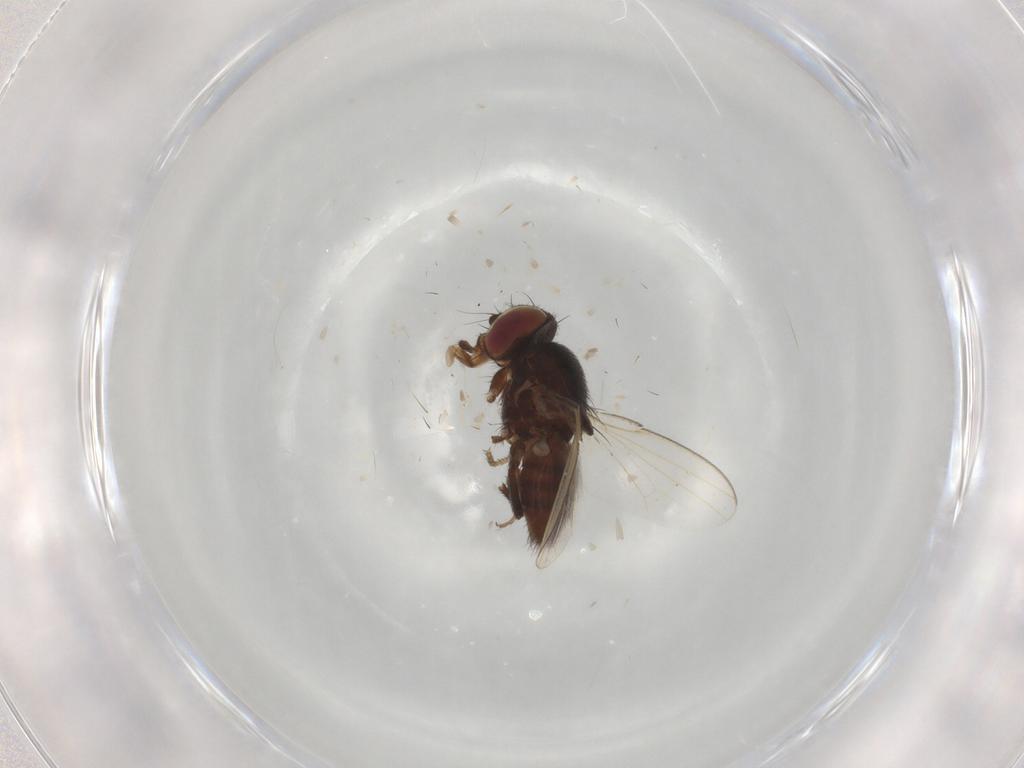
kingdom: Animalia
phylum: Arthropoda
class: Insecta
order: Diptera
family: Milichiidae
